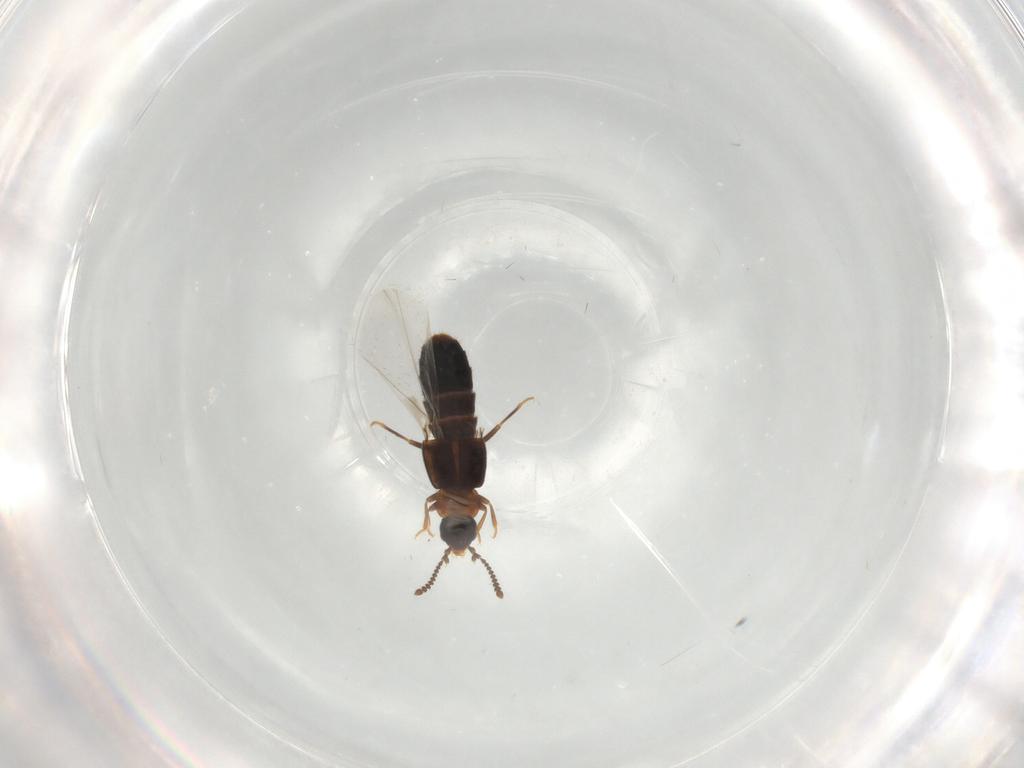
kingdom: Animalia
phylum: Arthropoda
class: Insecta
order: Coleoptera
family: Staphylinidae
